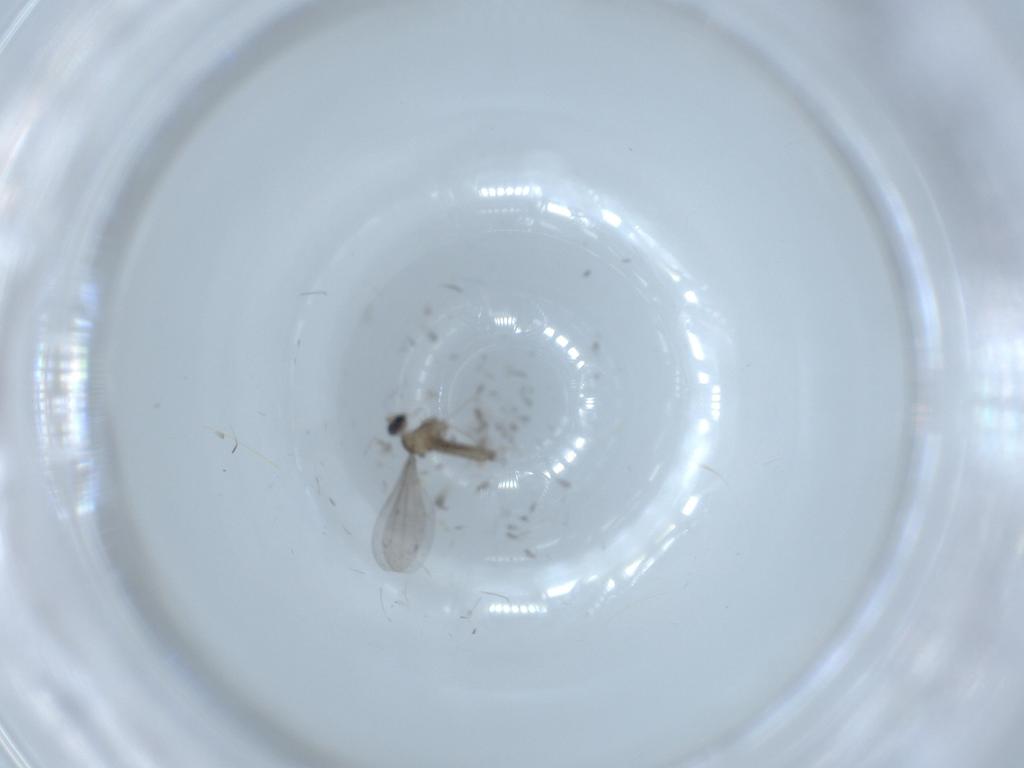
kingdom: Animalia
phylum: Arthropoda
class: Insecta
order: Diptera
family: Cecidomyiidae
